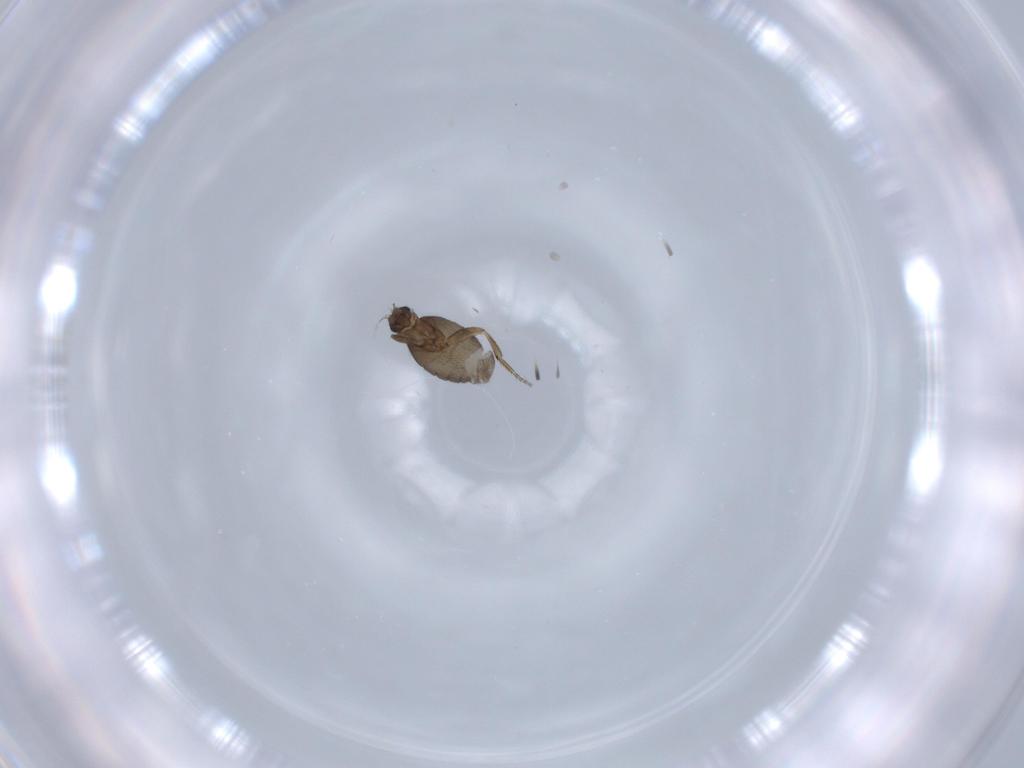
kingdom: Animalia
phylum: Arthropoda
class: Insecta
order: Diptera
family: Phoridae
